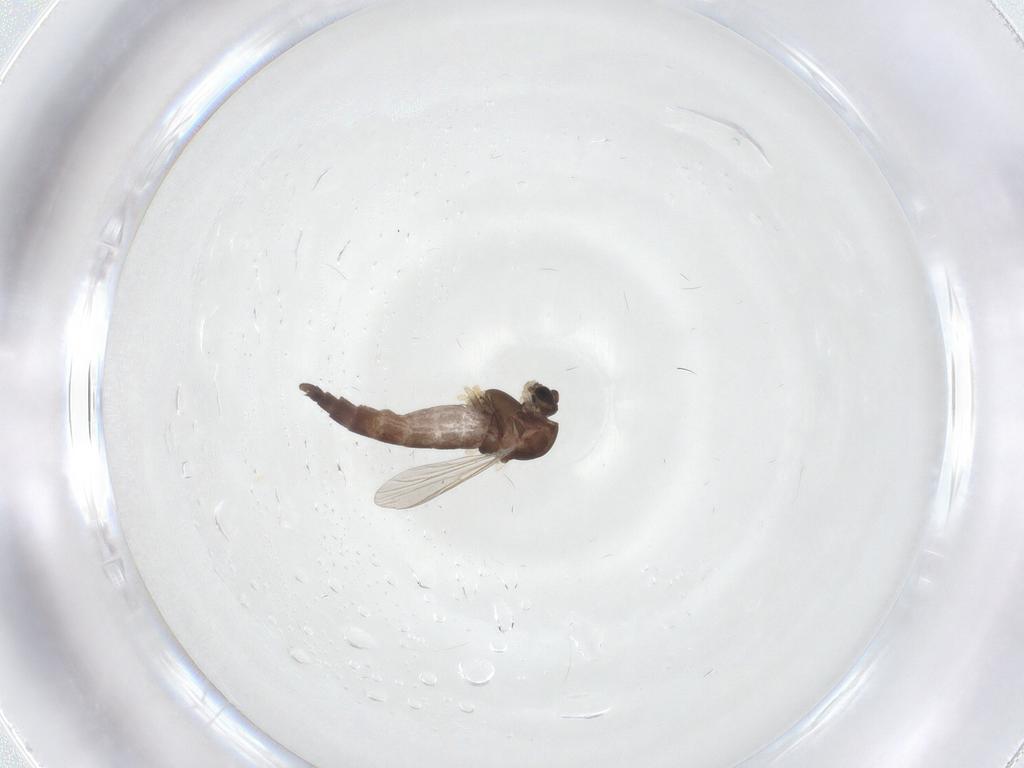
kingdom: Animalia
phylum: Arthropoda
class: Insecta
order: Diptera
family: Chironomidae
